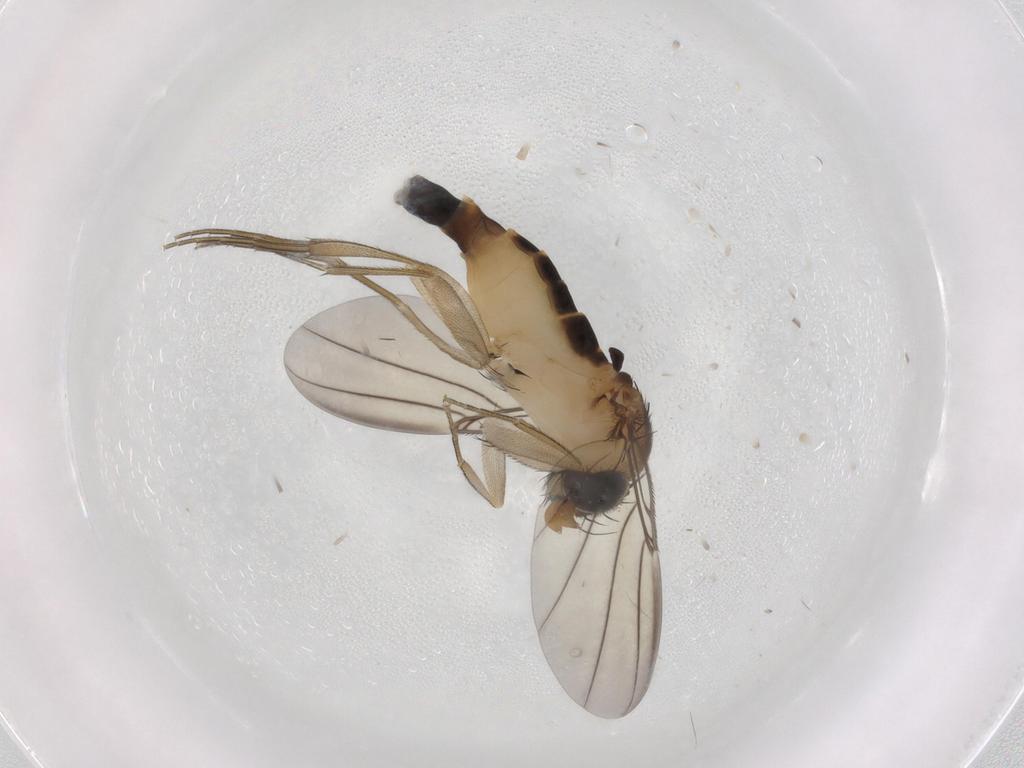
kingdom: Animalia
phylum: Arthropoda
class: Insecta
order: Diptera
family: Phoridae
